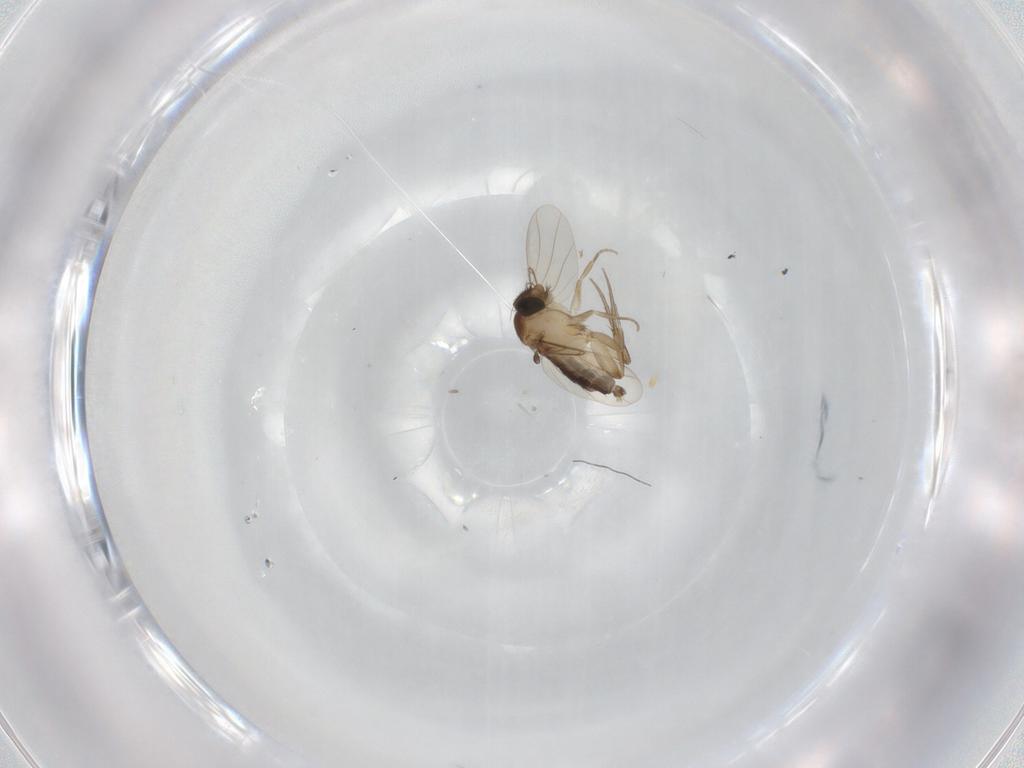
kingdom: Animalia
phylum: Arthropoda
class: Insecta
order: Diptera
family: Phoridae
